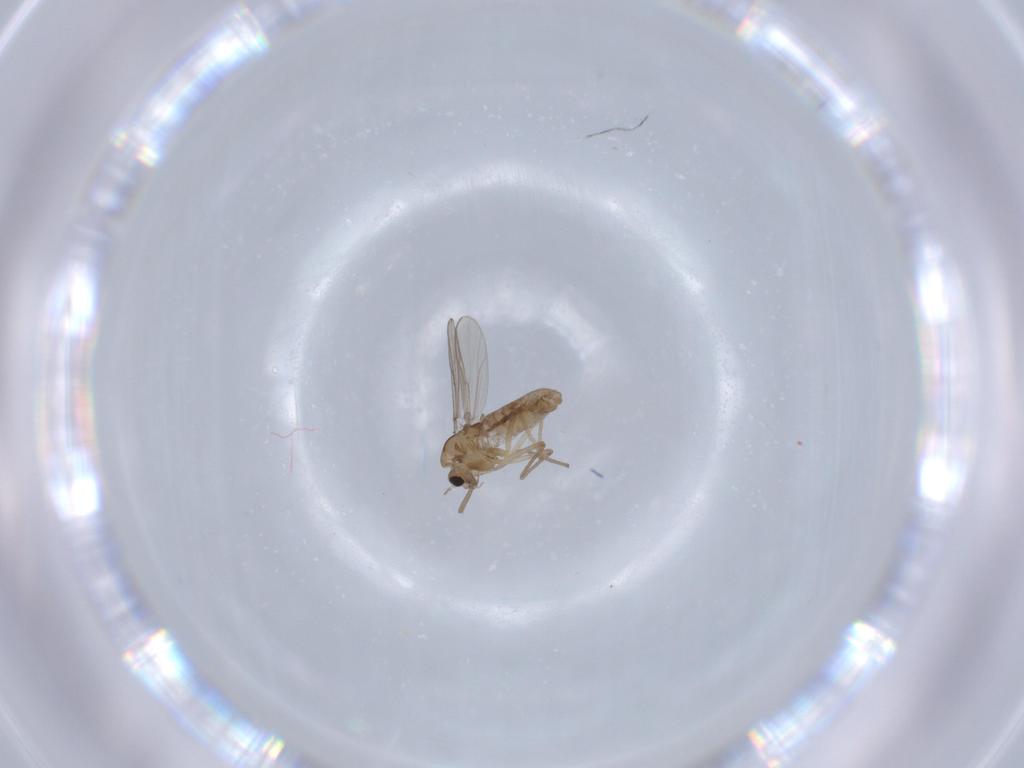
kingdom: Animalia
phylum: Arthropoda
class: Insecta
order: Diptera
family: Chironomidae
